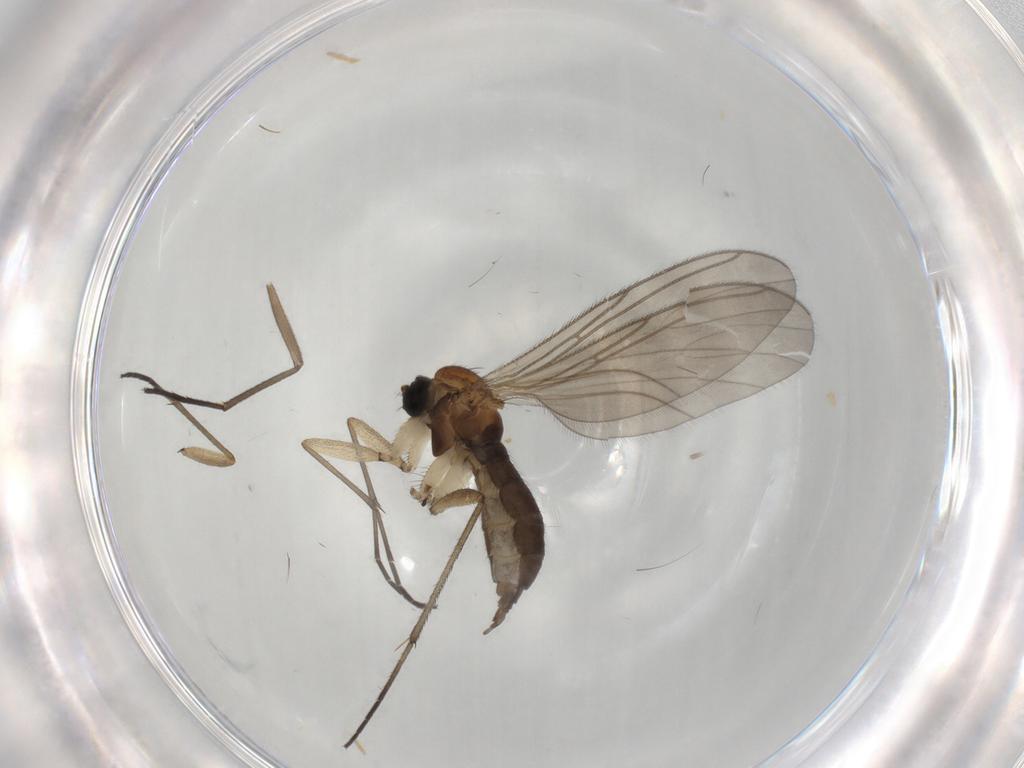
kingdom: Animalia
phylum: Arthropoda
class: Insecta
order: Diptera
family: Sciaridae
